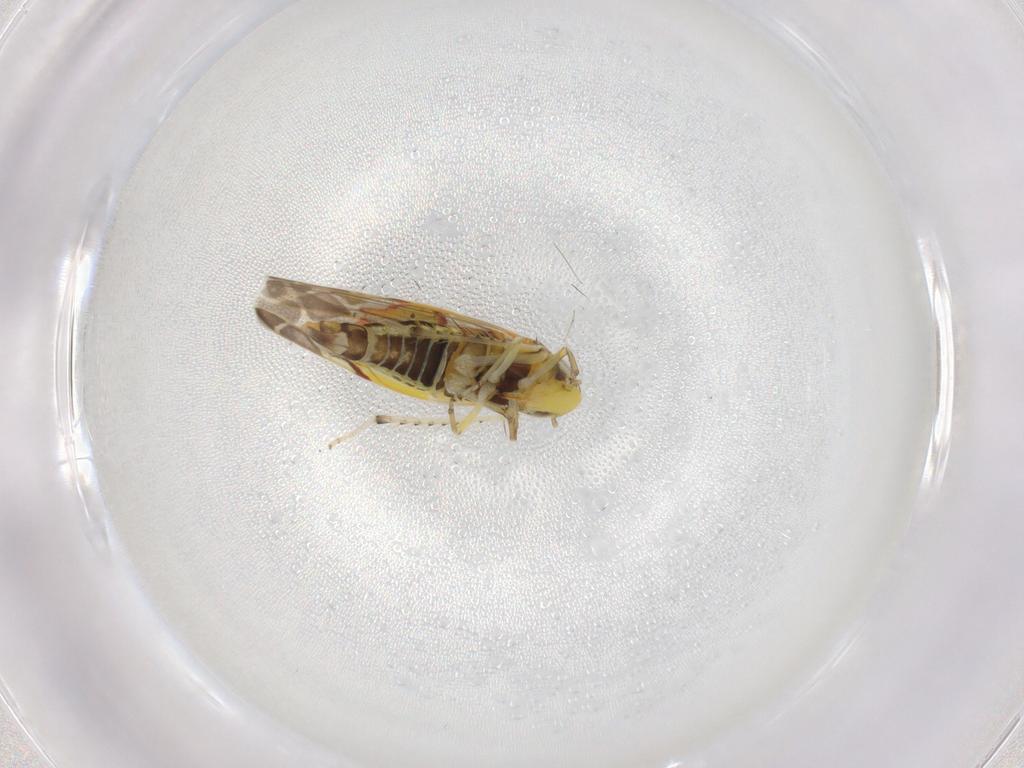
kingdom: Animalia
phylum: Arthropoda
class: Insecta
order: Hemiptera
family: Cicadellidae
